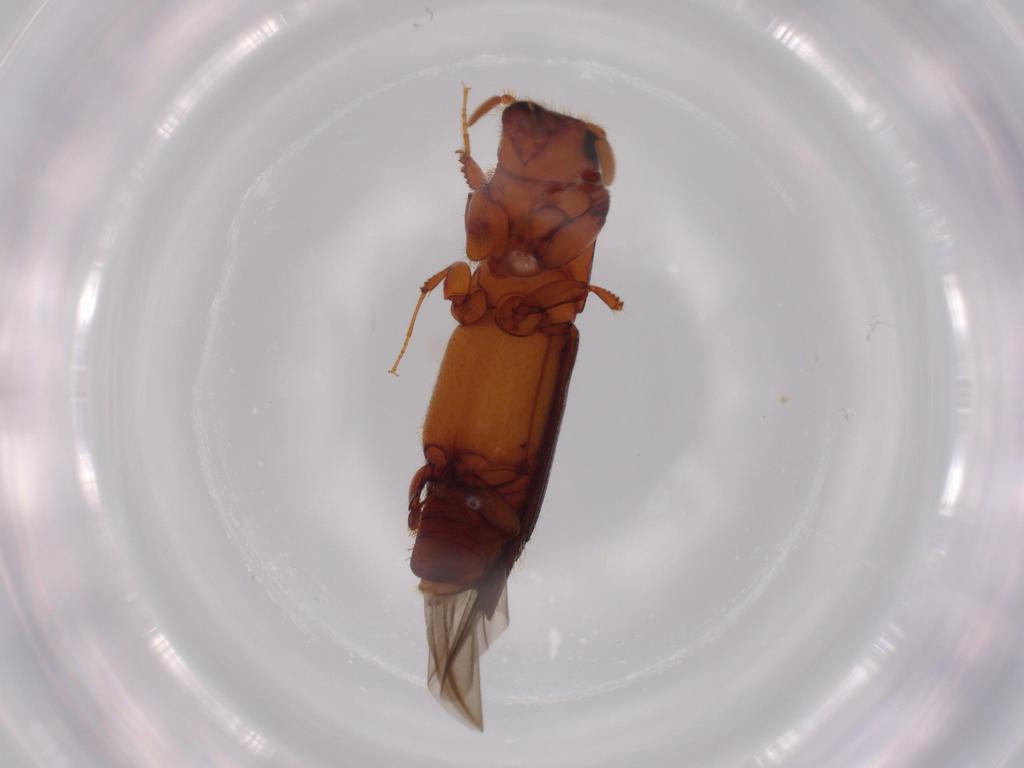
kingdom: Animalia
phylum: Arthropoda
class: Insecta
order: Coleoptera
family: Curculionidae
